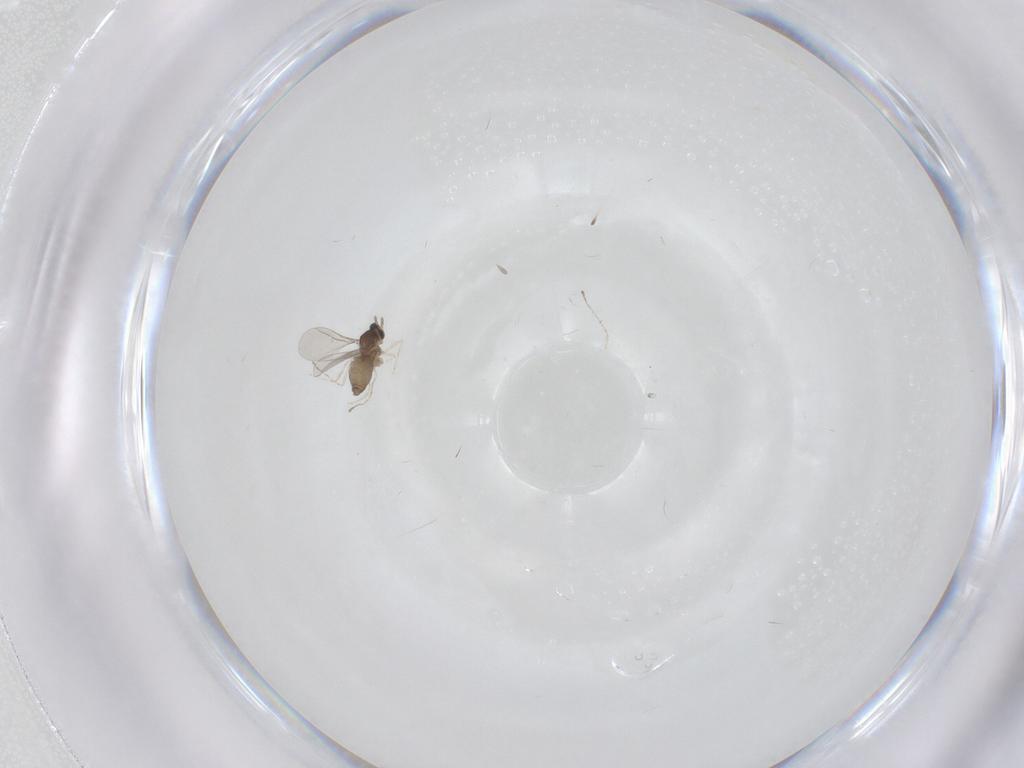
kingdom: Animalia
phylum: Arthropoda
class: Insecta
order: Diptera
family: Cecidomyiidae
